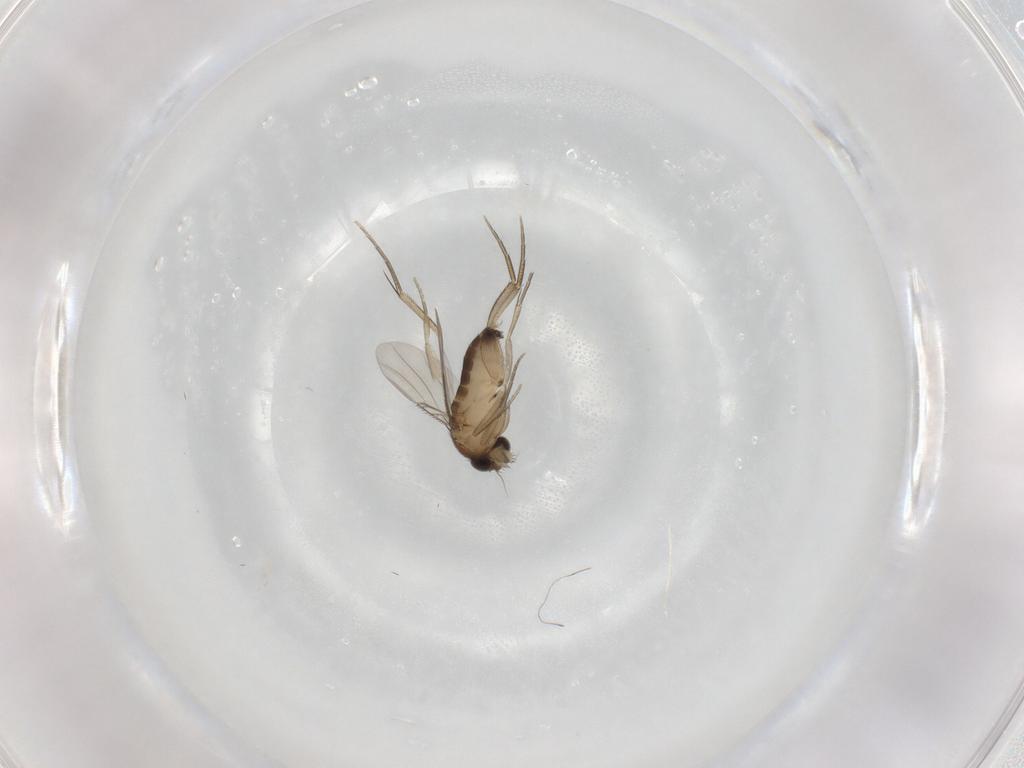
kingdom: Animalia
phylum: Arthropoda
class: Insecta
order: Diptera
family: Phoridae
